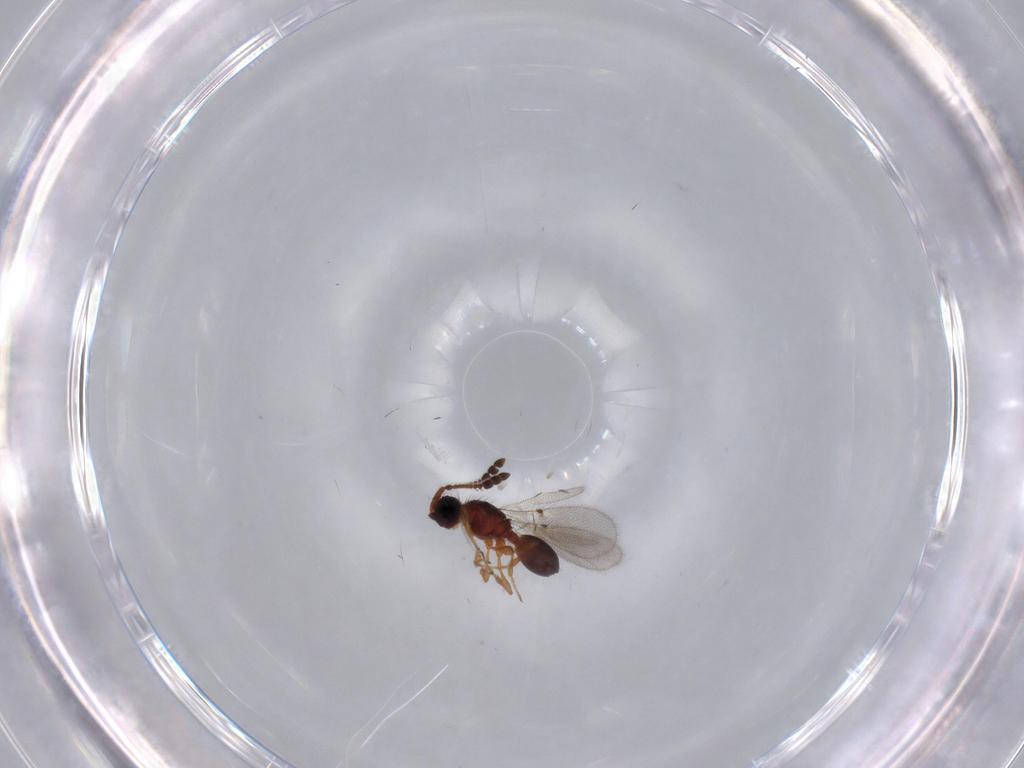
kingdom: Animalia
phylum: Arthropoda
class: Insecta
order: Hymenoptera
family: Diapriidae
